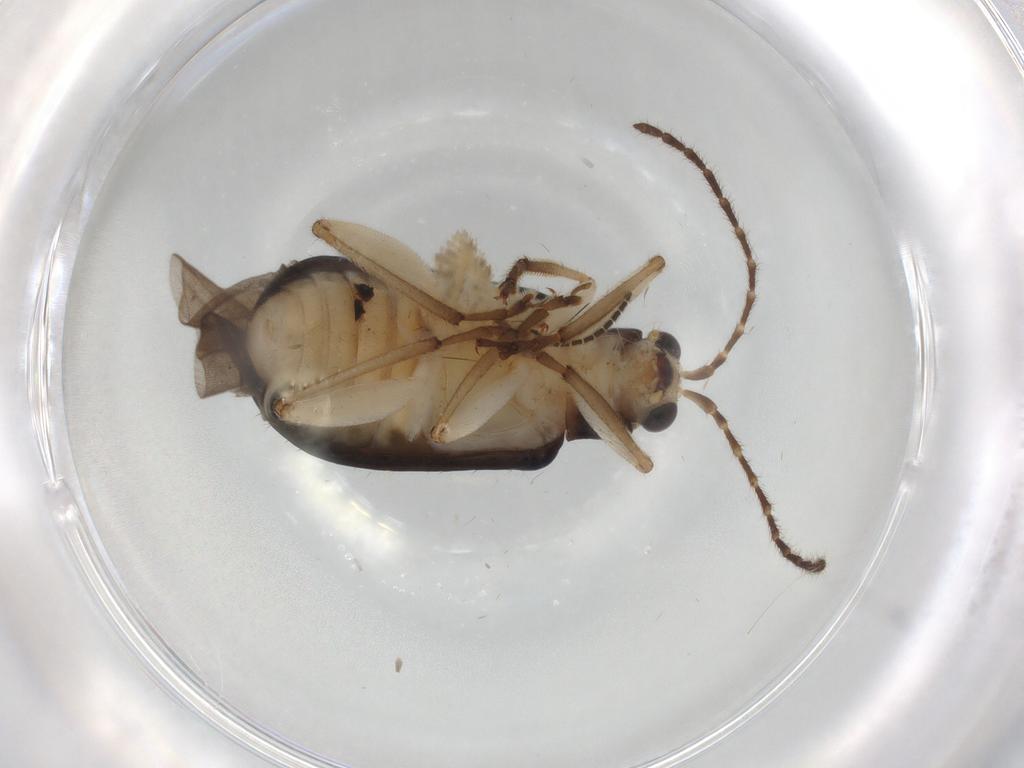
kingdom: Animalia
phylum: Arthropoda
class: Insecta
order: Coleoptera
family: Chrysomelidae
